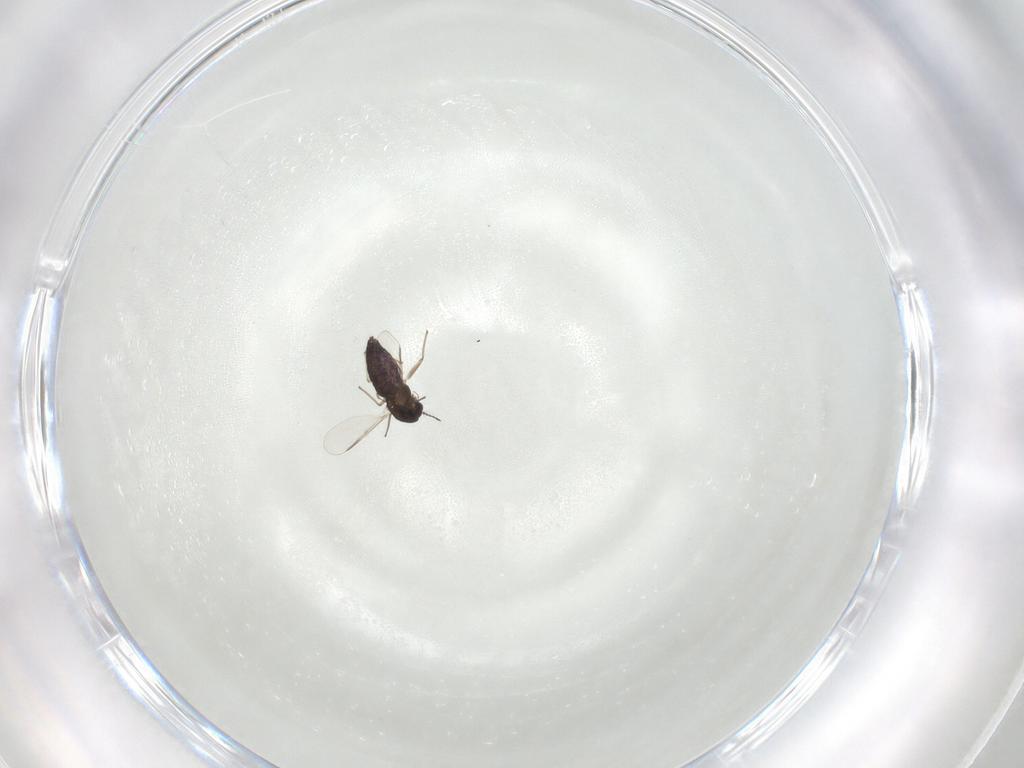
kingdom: Animalia
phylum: Arthropoda
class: Insecta
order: Diptera
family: Chironomidae
